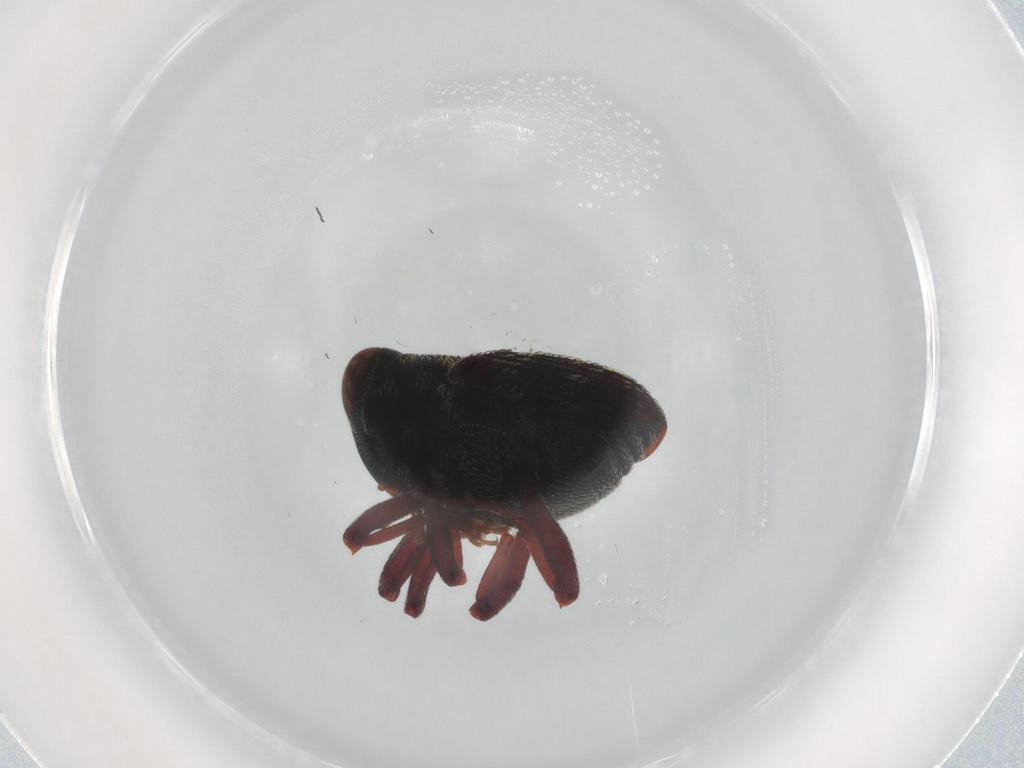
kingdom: Animalia
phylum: Arthropoda
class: Insecta
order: Coleoptera
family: Curculionidae
